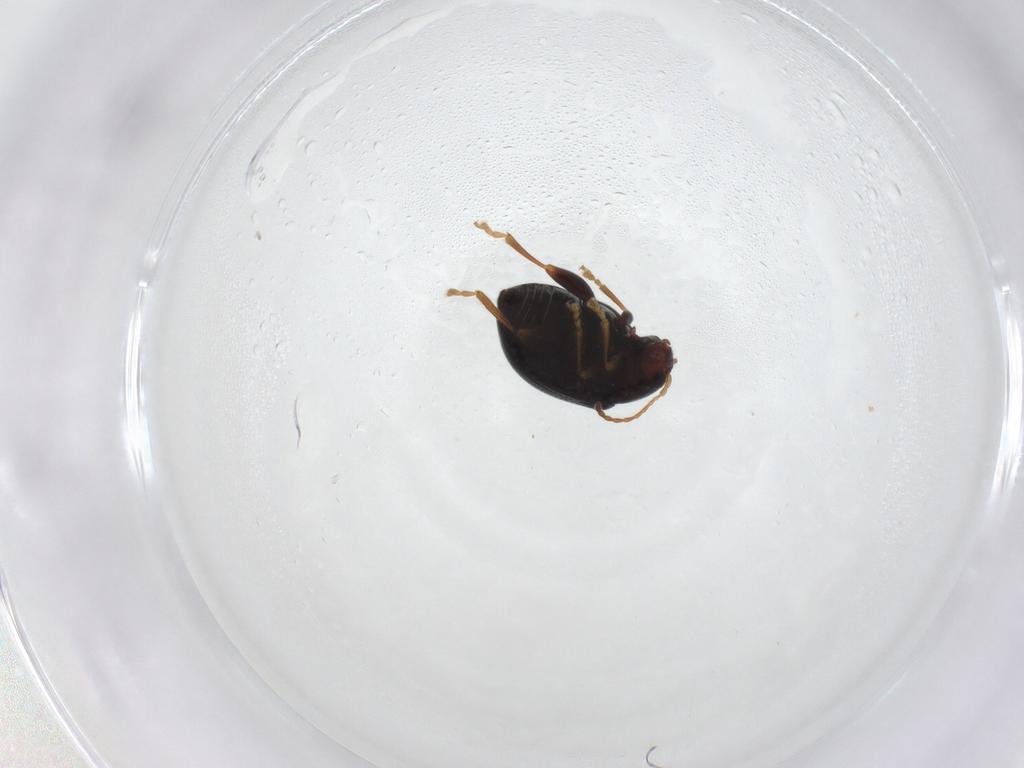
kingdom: Animalia
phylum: Arthropoda
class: Insecta
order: Coleoptera
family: Chrysomelidae
